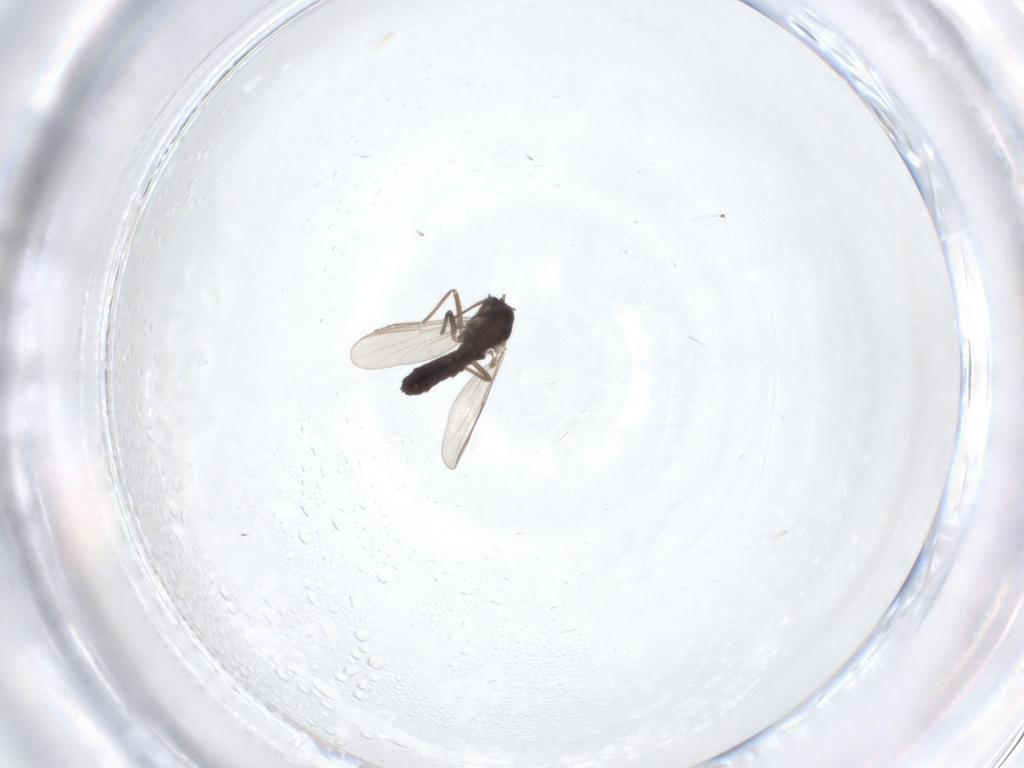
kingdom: Animalia
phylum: Arthropoda
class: Insecta
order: Diptera
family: Chironomidae
